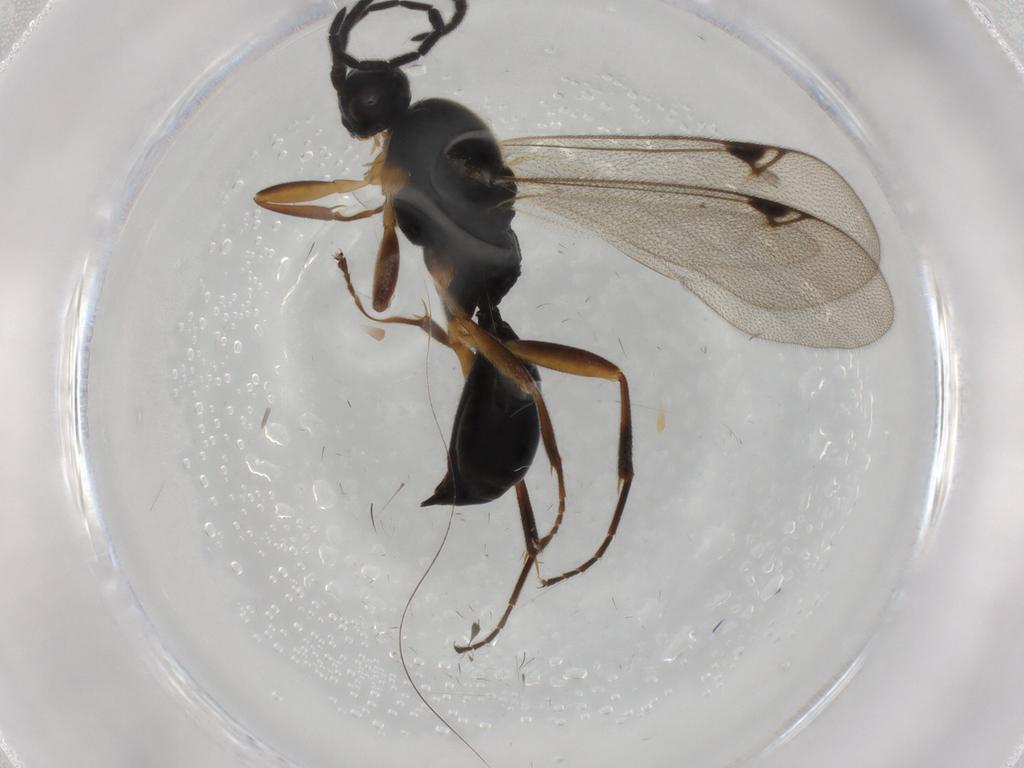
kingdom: Animalia
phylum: Arthropoda
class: Insecta
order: Hymenoptera
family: Proctotrupidae
